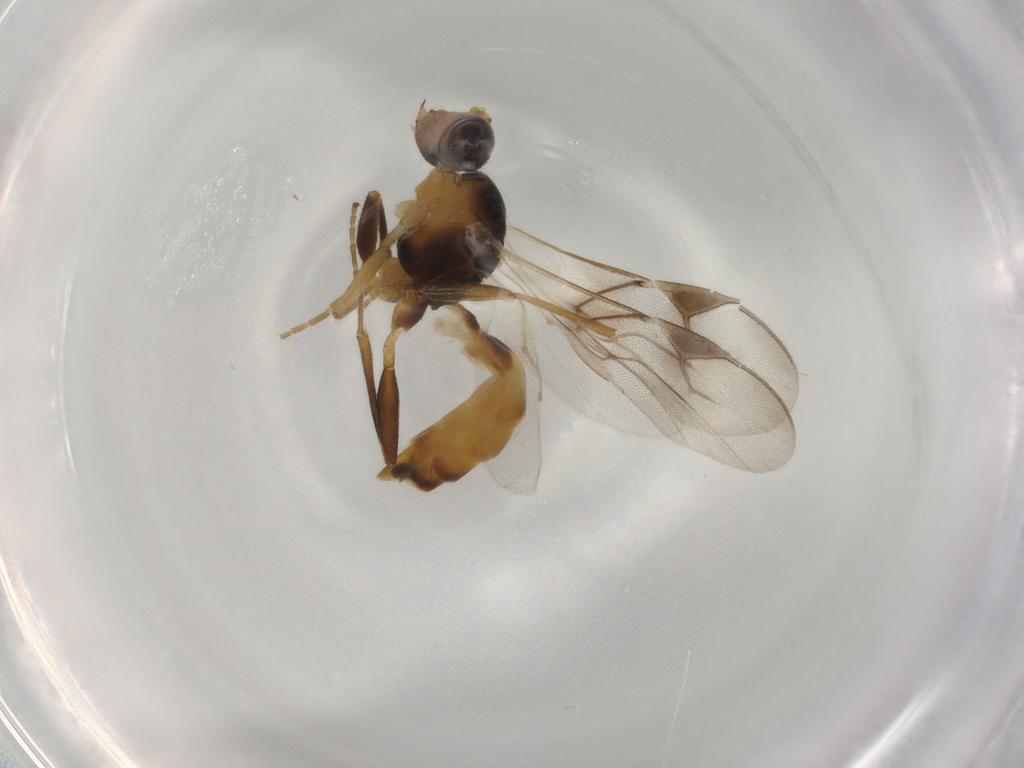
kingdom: Animalia
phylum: Arthropoda
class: Insecta
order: Hymenoptera
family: Braconidae
